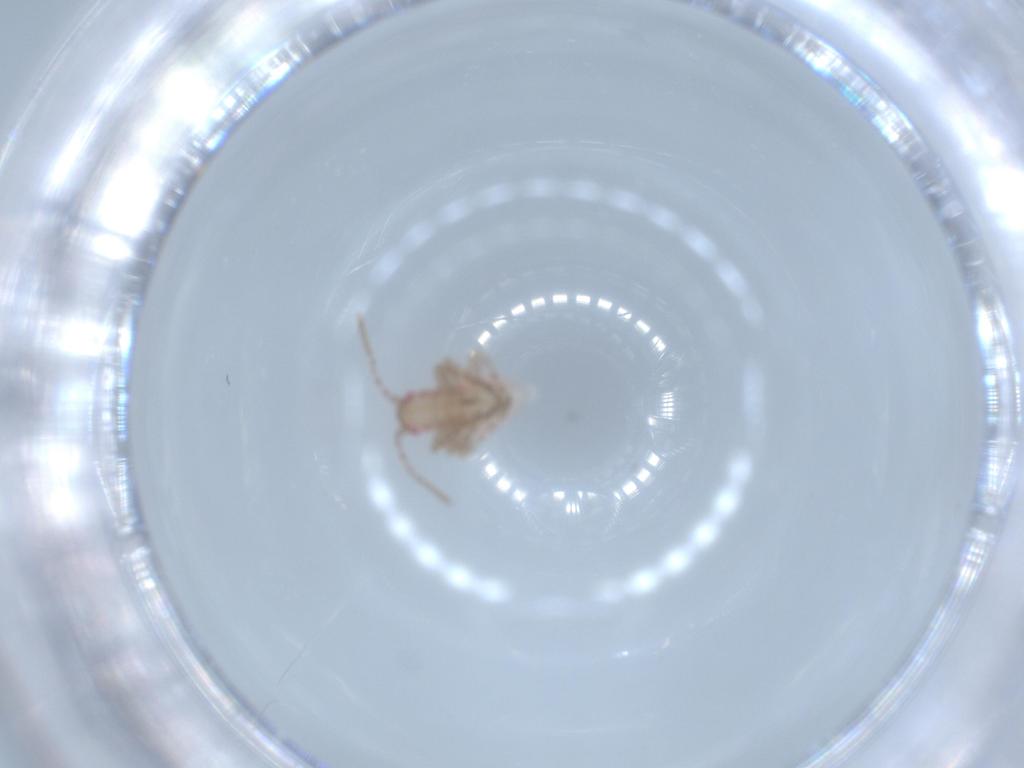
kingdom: Animalia
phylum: Arthropoda
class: Insecta
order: Hemiptera
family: Miridae
